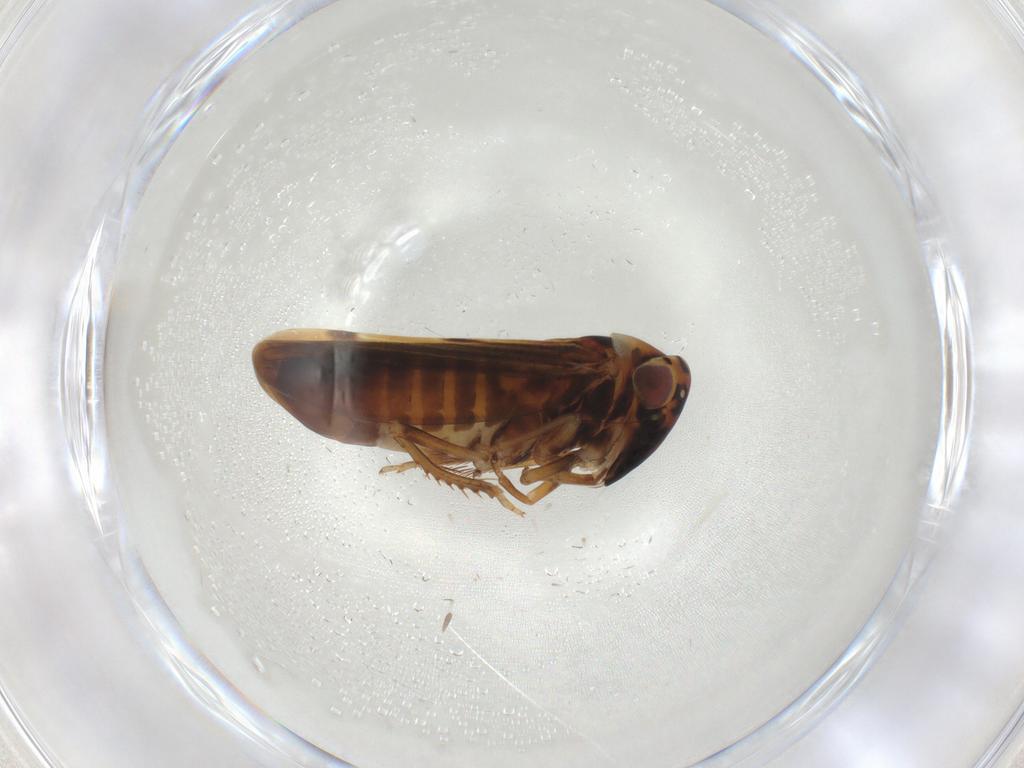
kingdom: Animalia
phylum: Arthropoda
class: Insecta
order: Hemiptera
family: Cicadellidae
